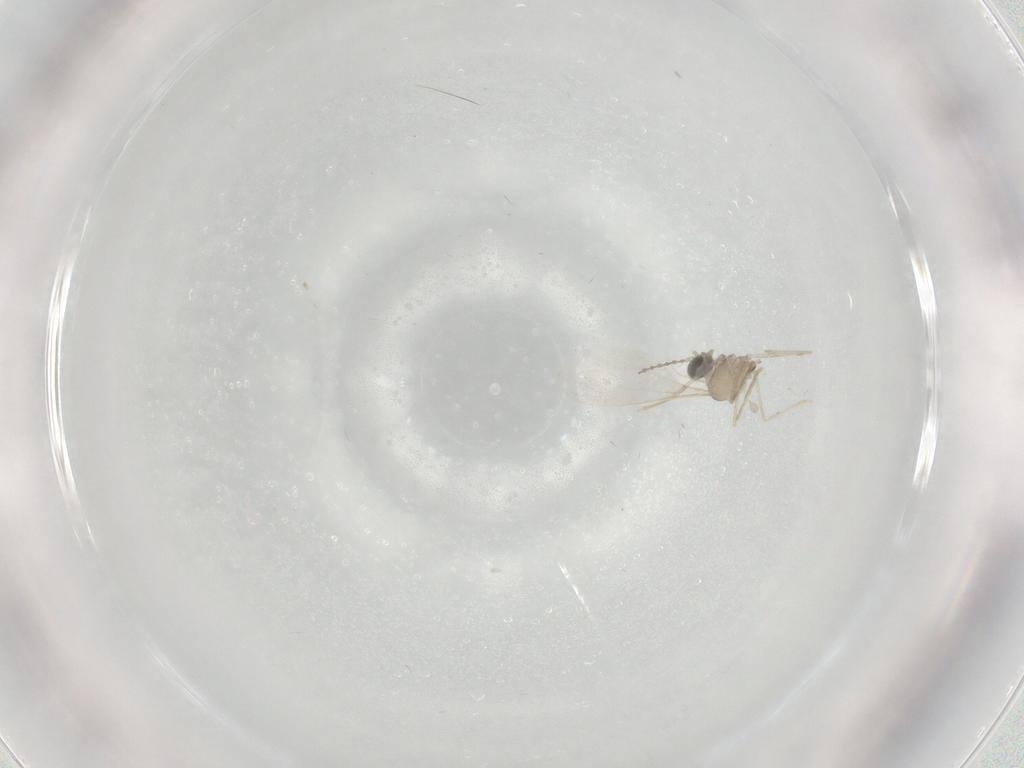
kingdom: Animalia
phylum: Arthropoda
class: Insecta
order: Diptera
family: Cecidomyiidae
